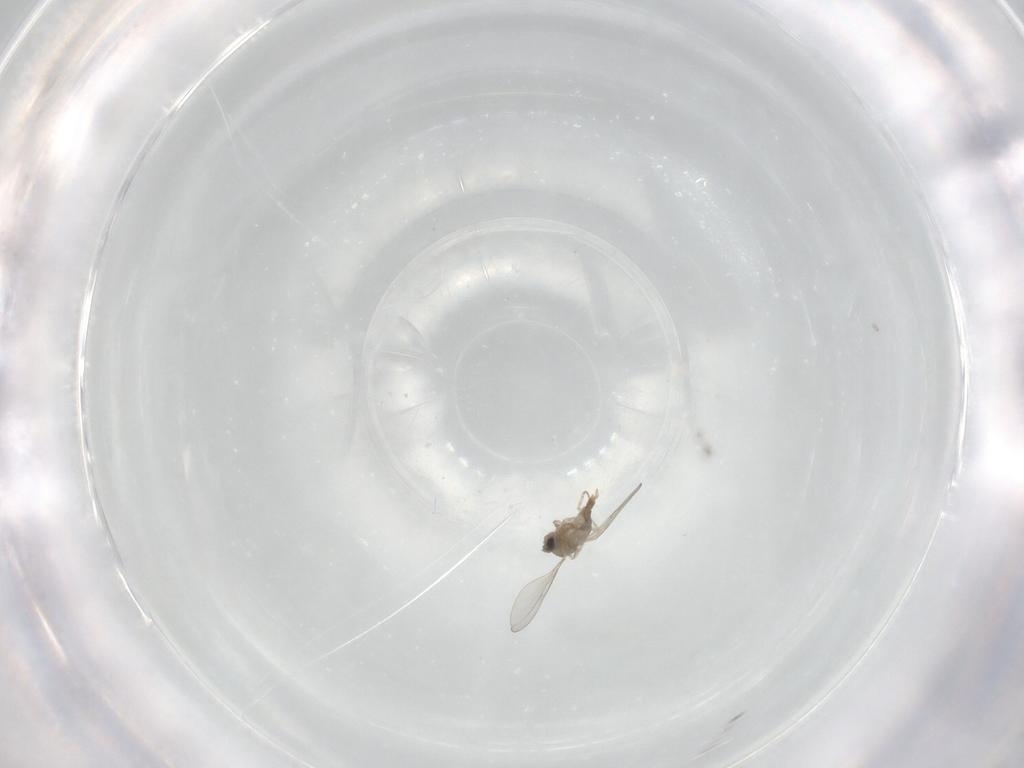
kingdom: Animalia
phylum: Arthropoda
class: Insecta
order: Diptera
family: Cecidomyiidae
